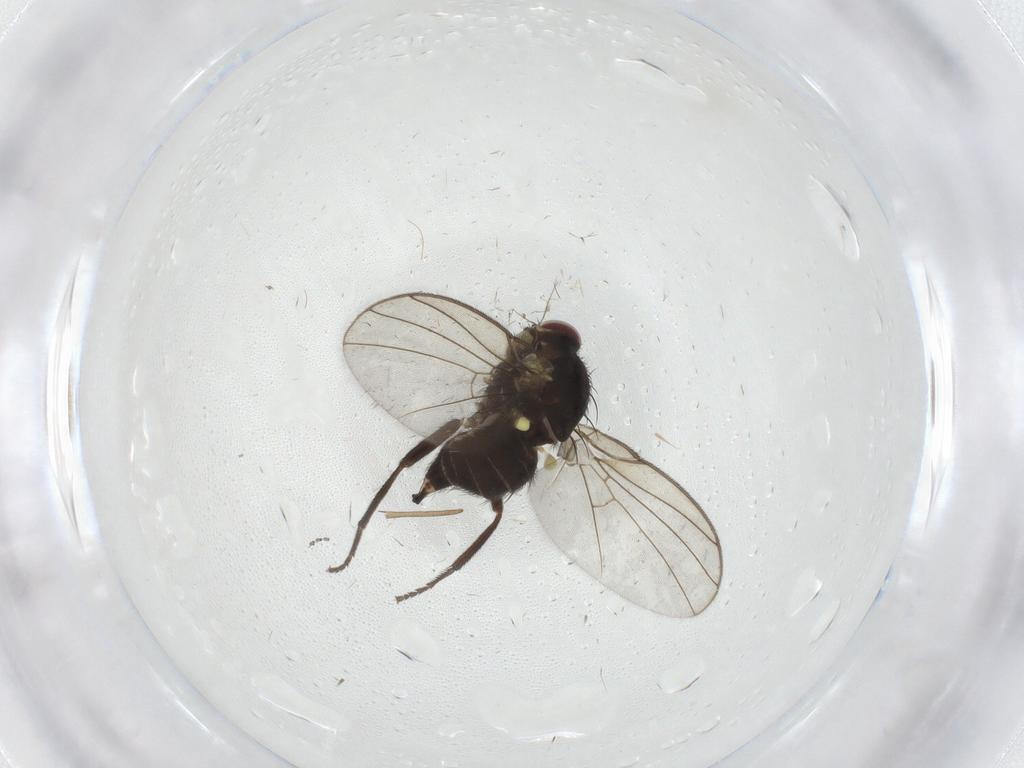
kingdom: Animalia
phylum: Arthropoda
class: Insecta
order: Diptera
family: Agromyzidae
